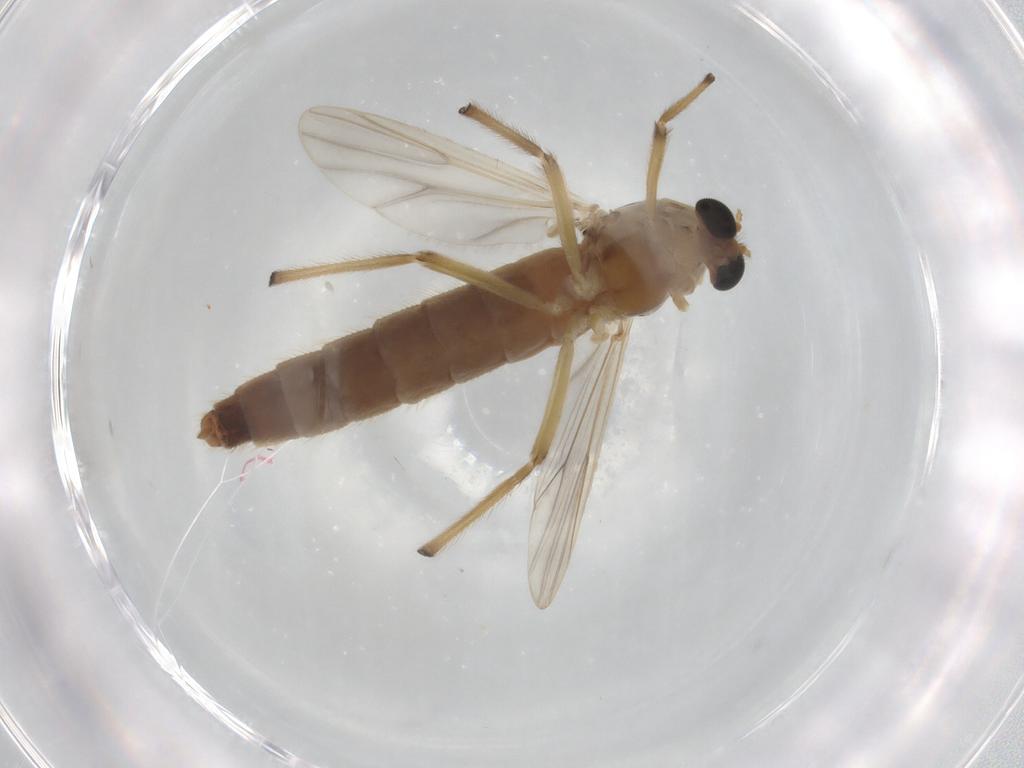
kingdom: Animalia
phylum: Arthropoda
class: Insecta
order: Diptera
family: Chironomidae
